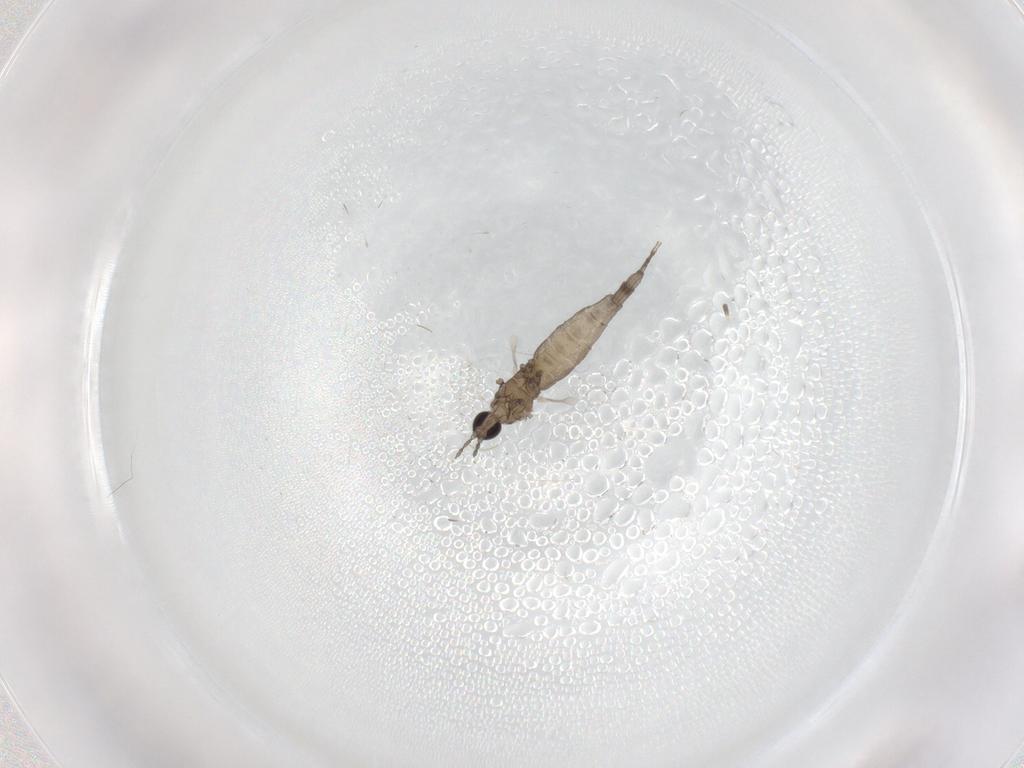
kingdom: Animalia
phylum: Arthropoda
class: Insecta
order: Diptera
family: Cecidomyiidae
